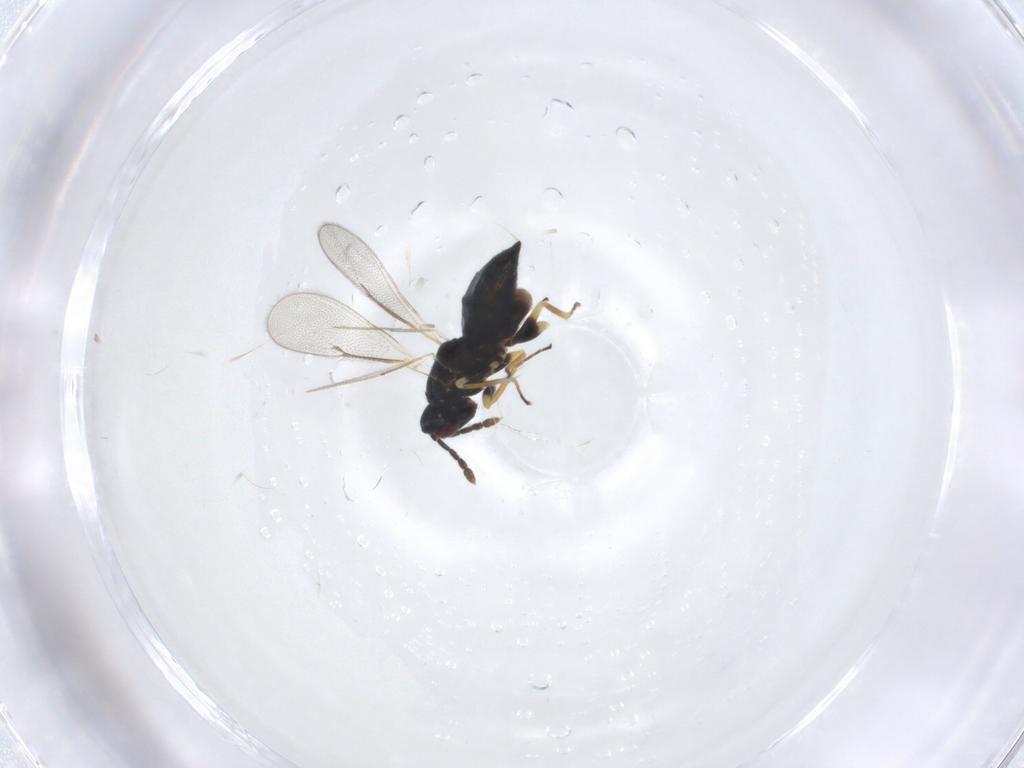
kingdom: Animalia
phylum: Arthropoda
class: Insecta
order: Hymenoptera
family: Eulophidae
